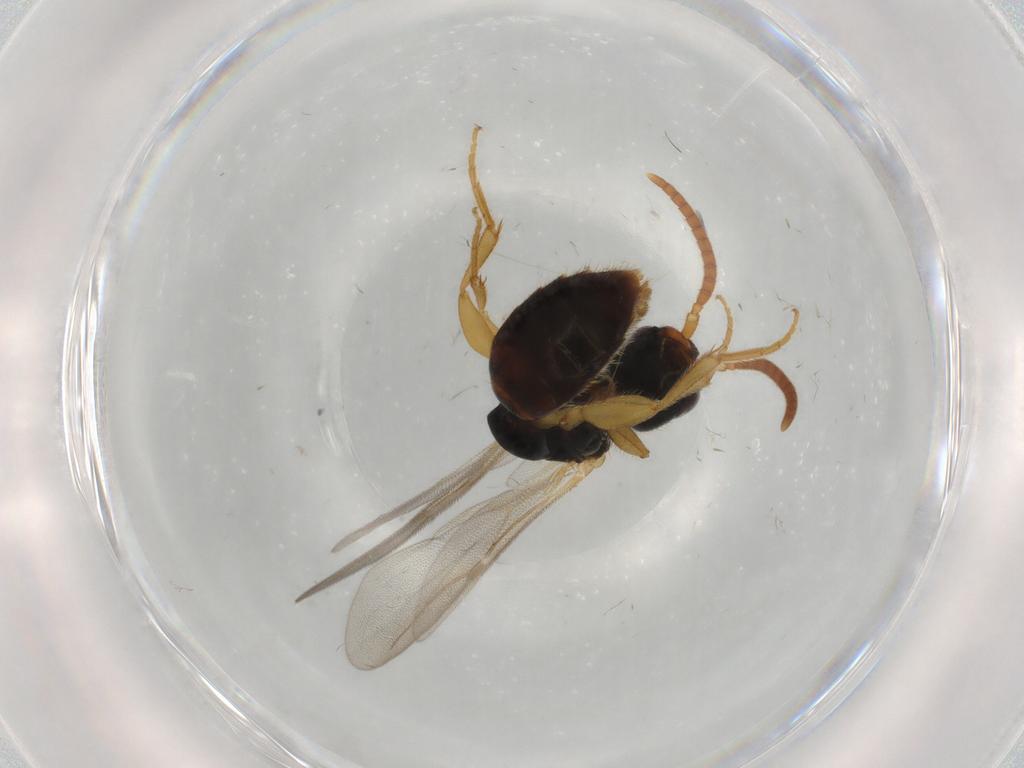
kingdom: Animalia
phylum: Arthropoda
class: Insecta
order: Hymenoptera
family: Bethylidae
